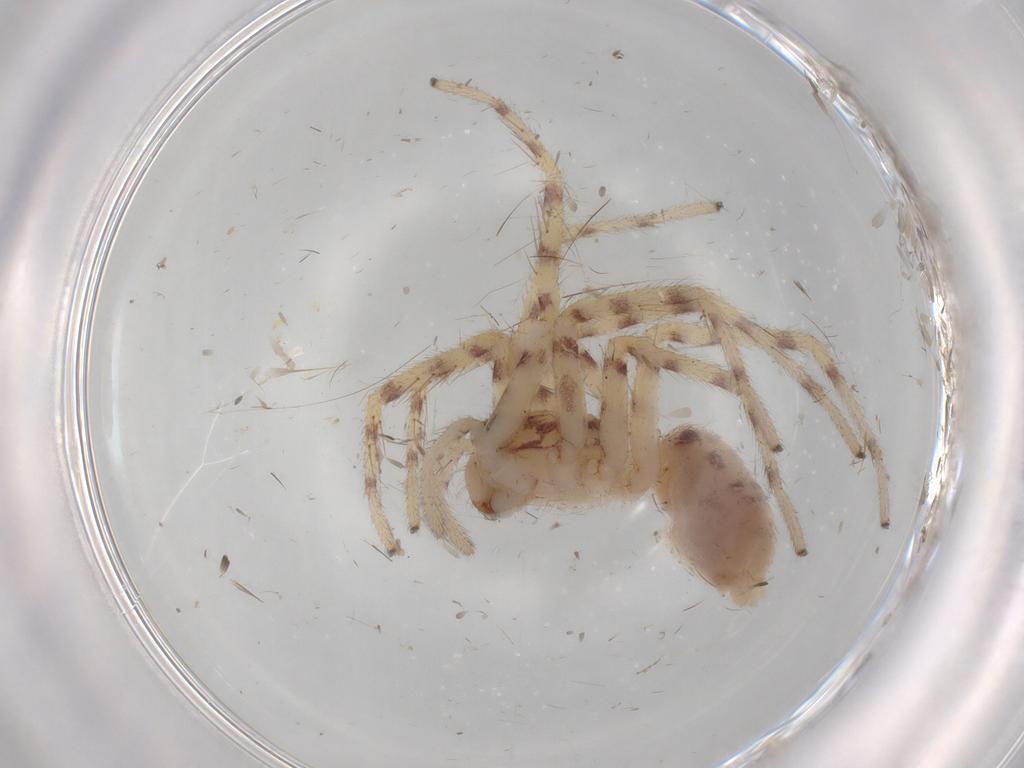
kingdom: Animalia
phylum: Arthropoda
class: Arachnida
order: Araneae
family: Corinnidae
